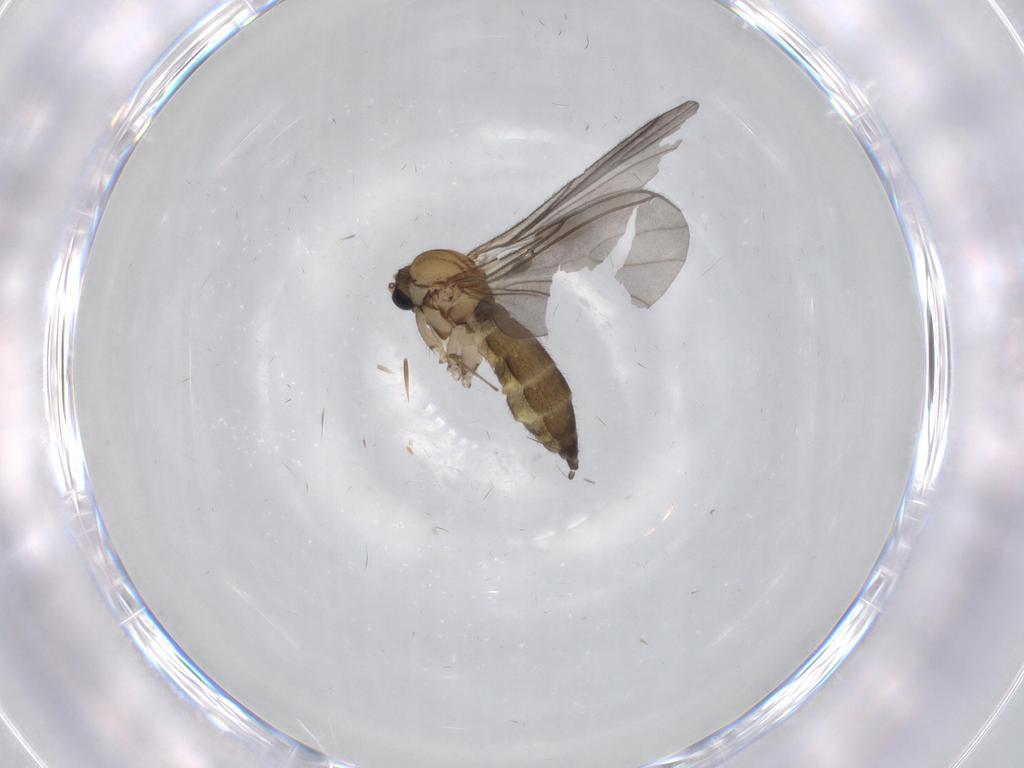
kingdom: Animalia
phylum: Arthropoda
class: Insecta
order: Diptera
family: Sciaridae
